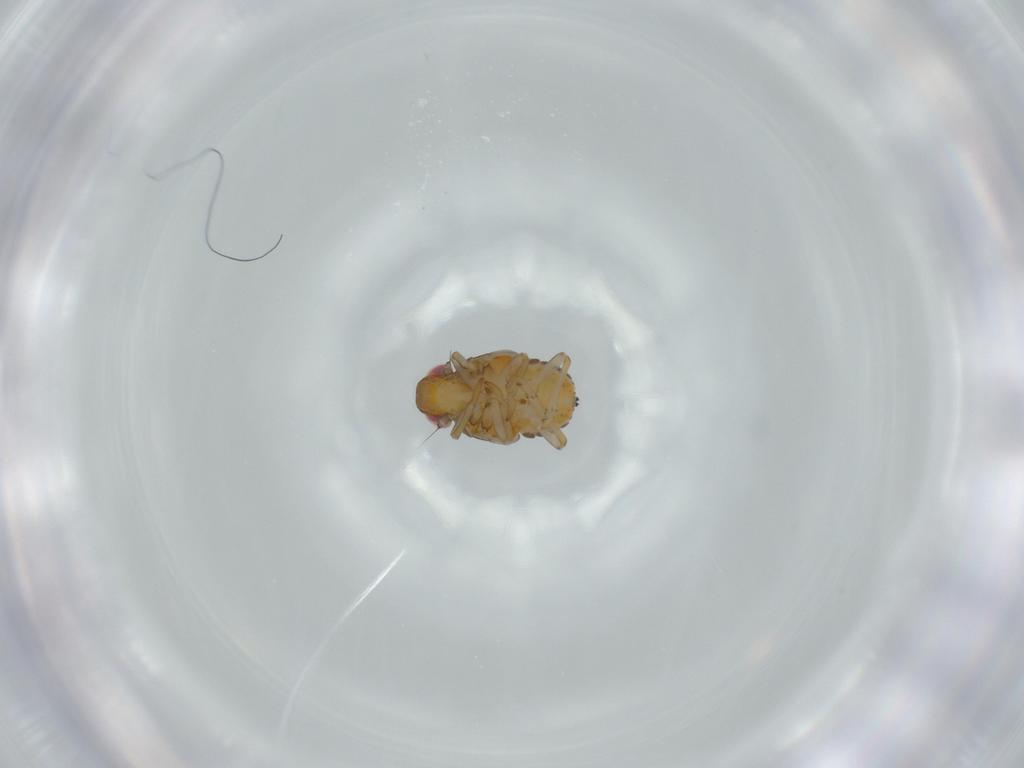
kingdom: Animalia
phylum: Arthropoda
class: Insecta
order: Hemiptera
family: Issidae
